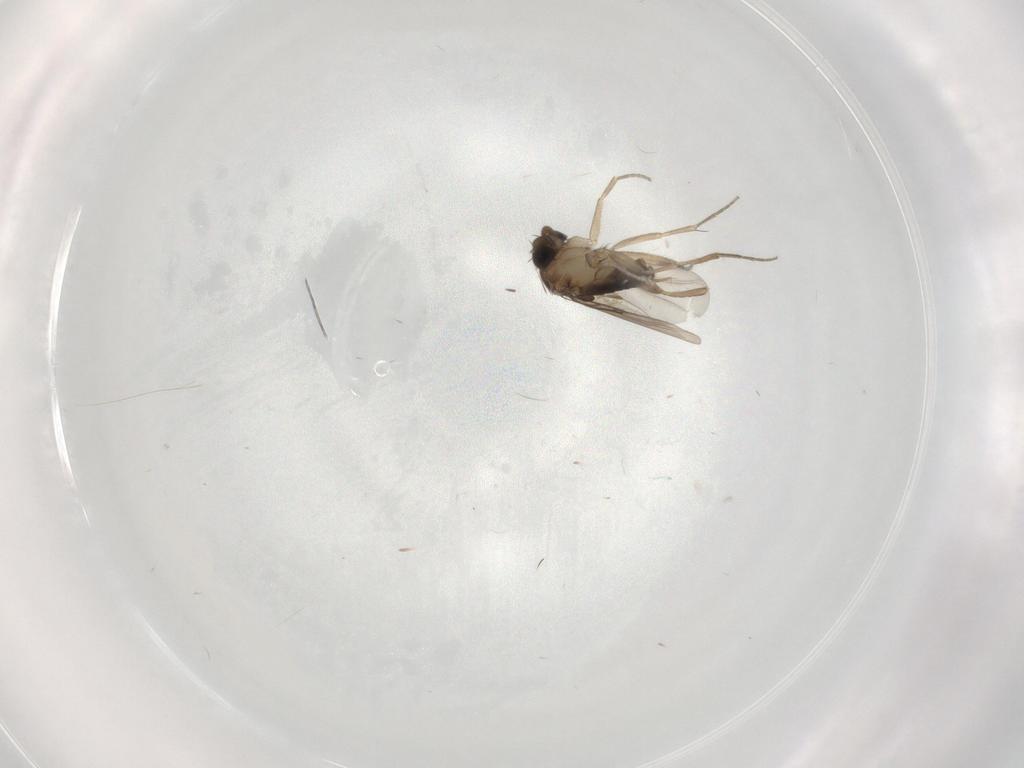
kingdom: Animalia
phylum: Arthropoda
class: Insecta
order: Diptera
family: Phoridae
